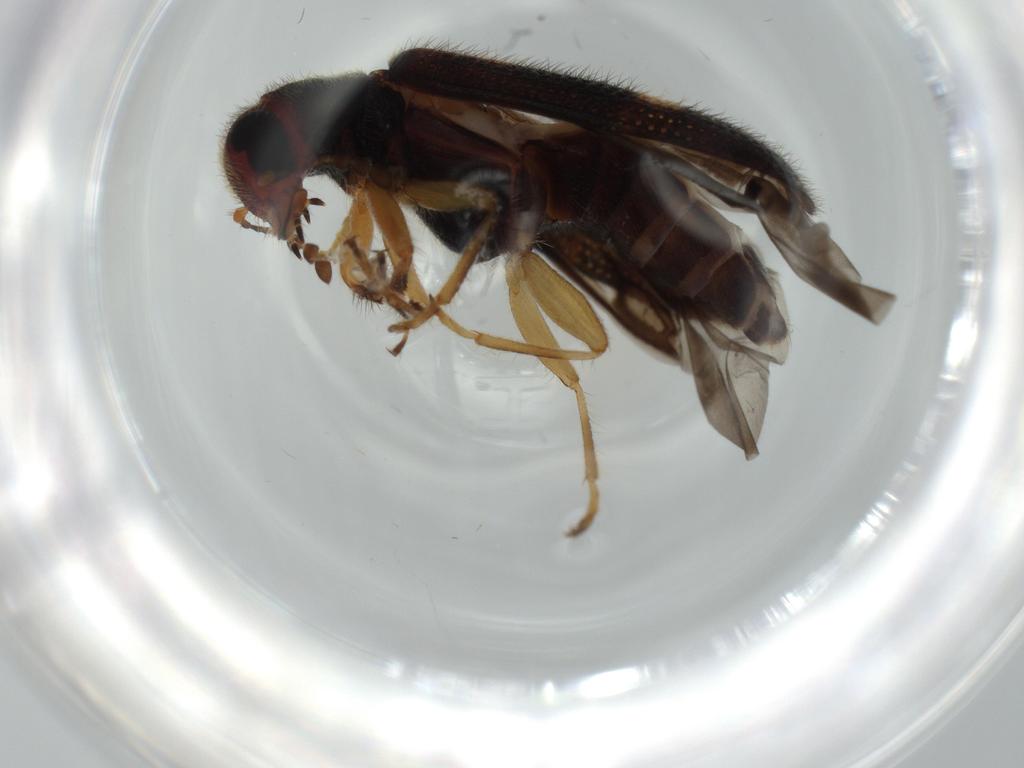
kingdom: Animalia
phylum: Arthropoda
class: Insecta
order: Coleoptera
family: Cleridae
